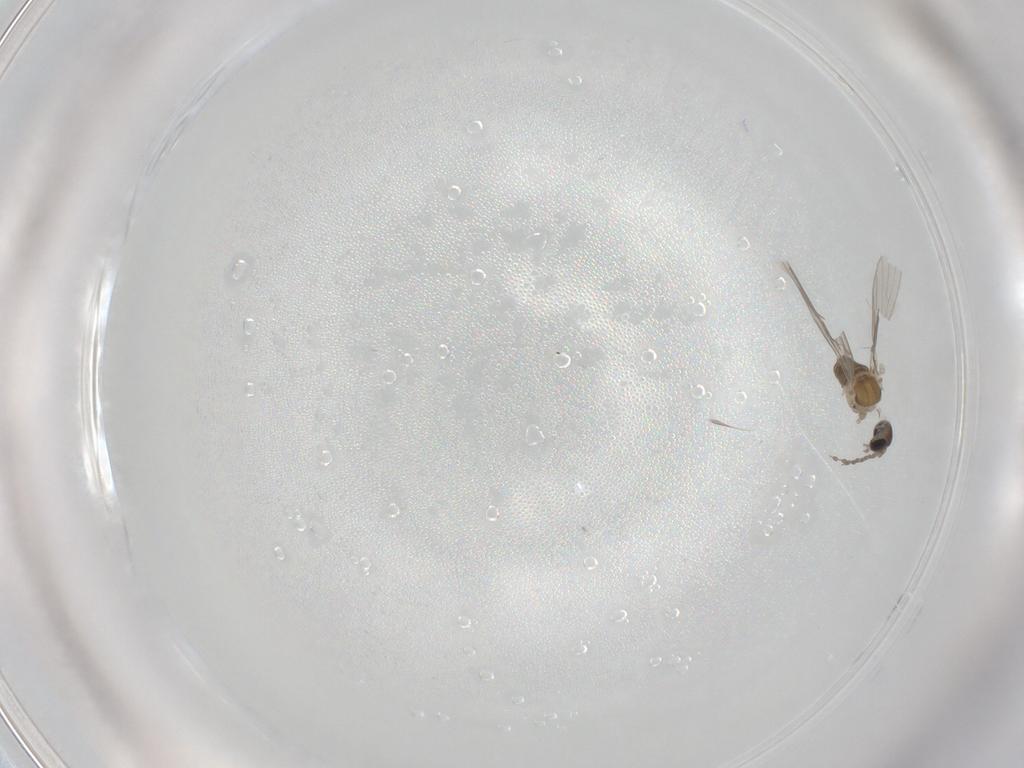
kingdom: Animalia
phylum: Arthropoda
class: Insecta
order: Diptera
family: Psychodidae
